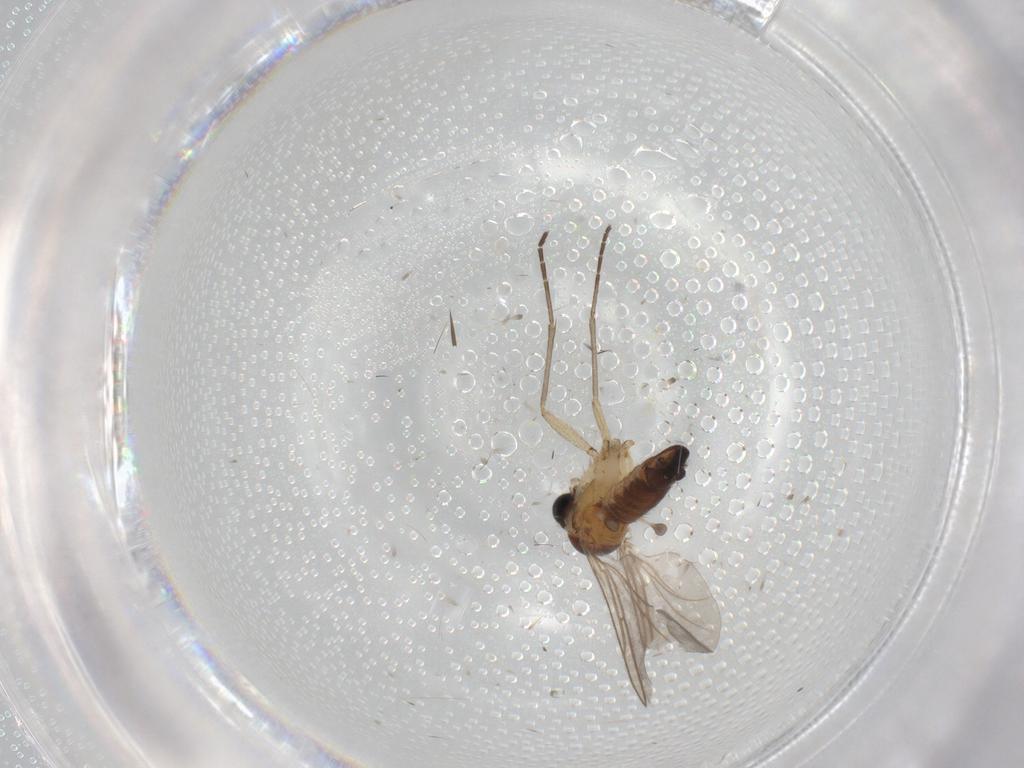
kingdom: Animalia
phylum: Arthropoda
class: Insecta
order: Diptera
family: Sciaridae
